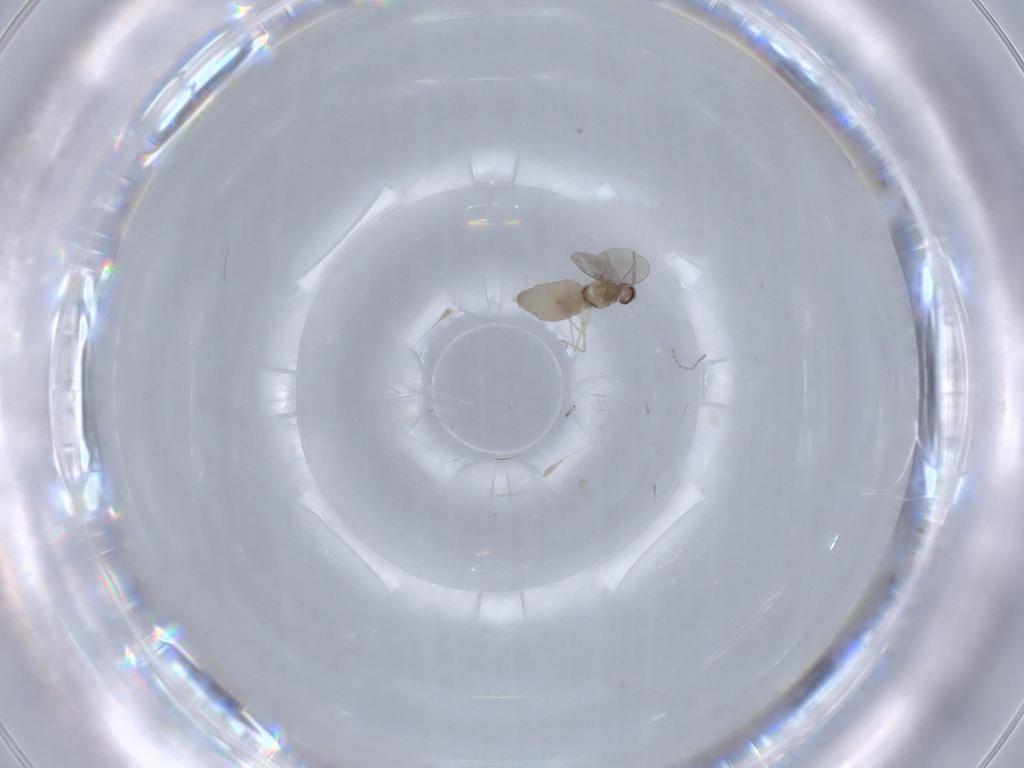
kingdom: Animalia
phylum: Arthropoda
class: Insecta
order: Diptera
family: Cecidomyiidae
